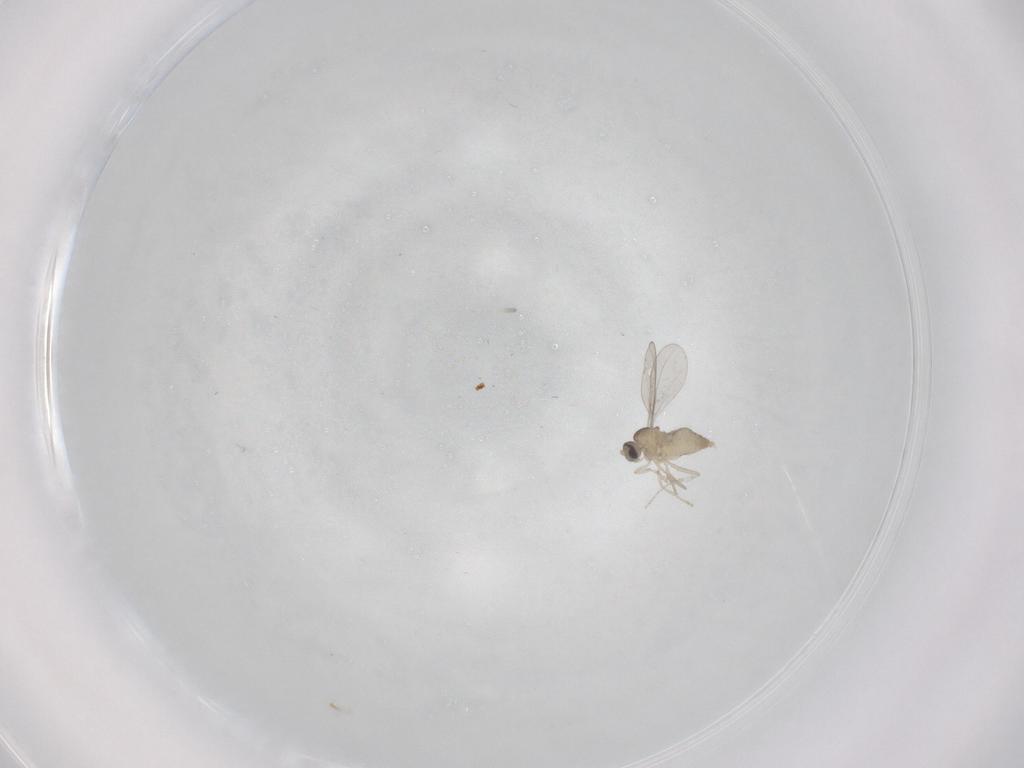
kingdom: Animalia
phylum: Arthropoda
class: Insecta
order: Diptera
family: Cecidomyiidae
